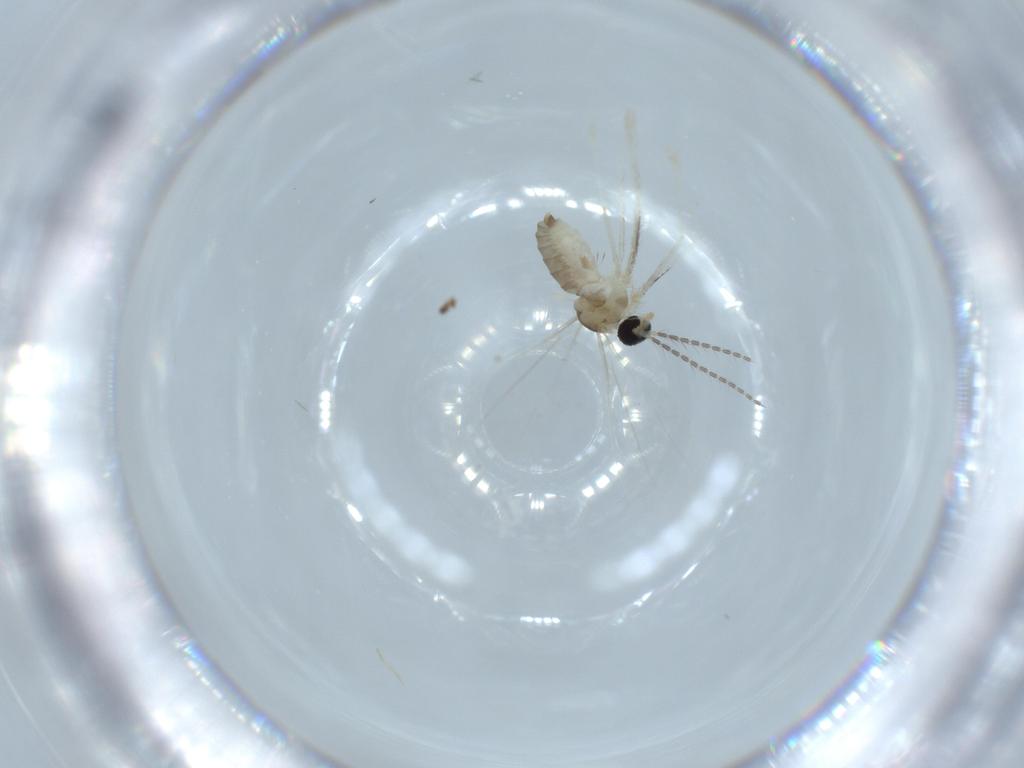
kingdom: Animalia
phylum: Arthropoda
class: Insecta
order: Diptera
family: Cecidomyiidae
